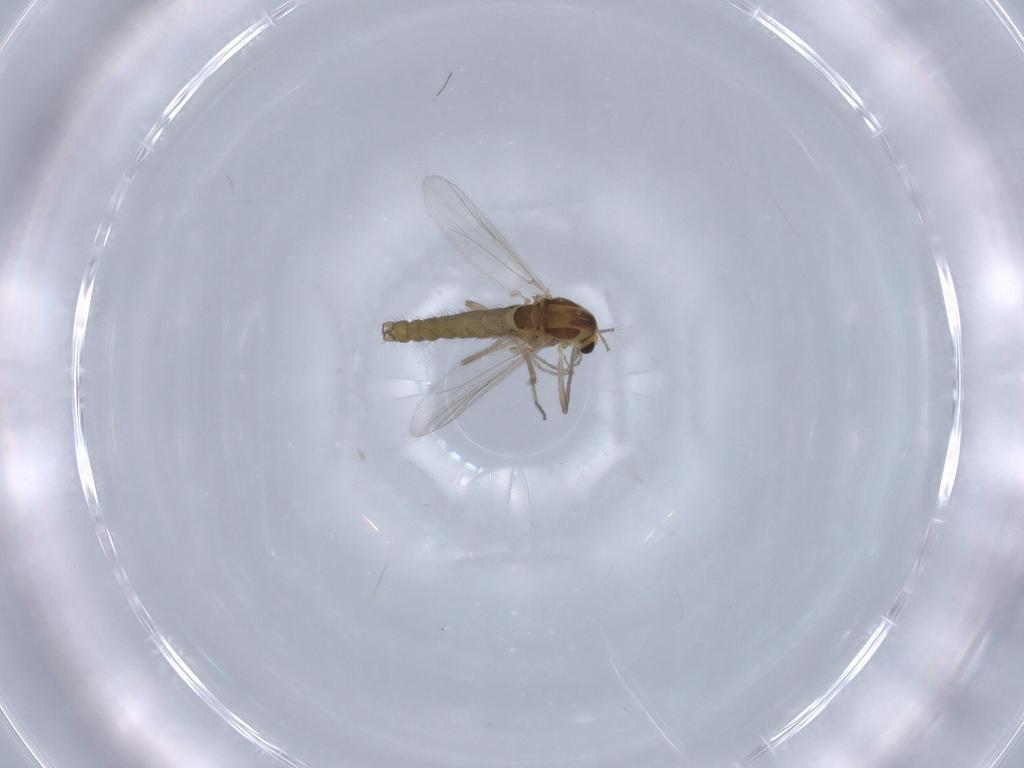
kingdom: Animalia
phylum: Arthropoda
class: Insecta
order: Diptera
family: Chironomidae
